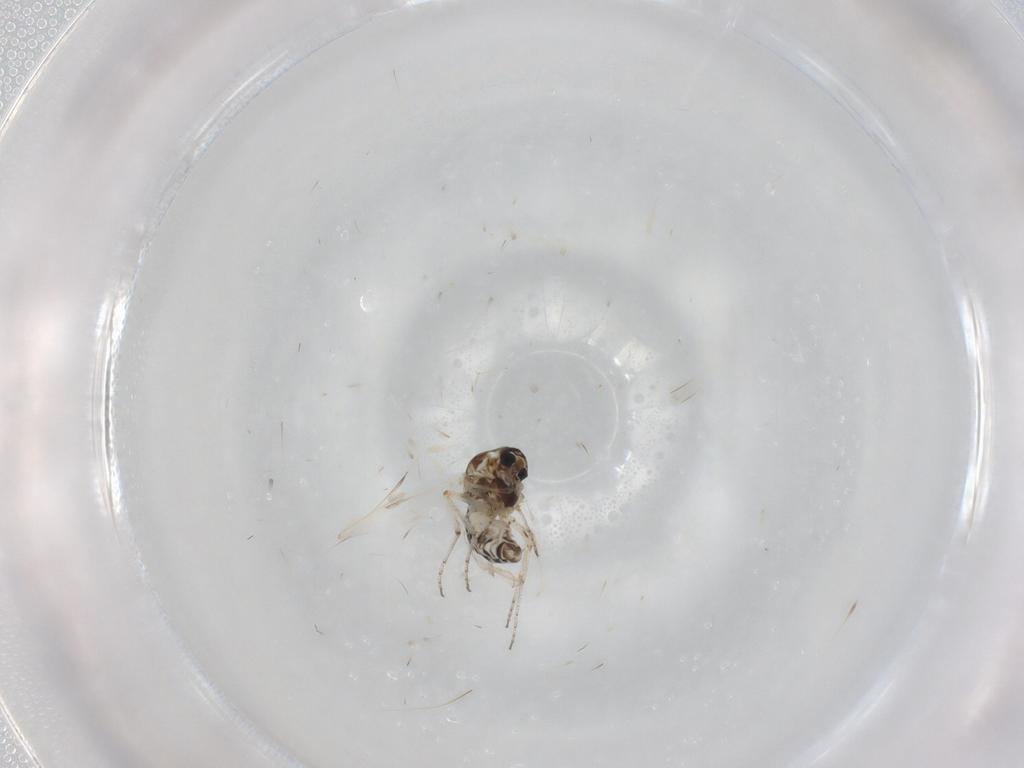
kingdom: Animalia
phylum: Arthropoda
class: Insecta
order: Diptera
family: Ceratopogonidae
